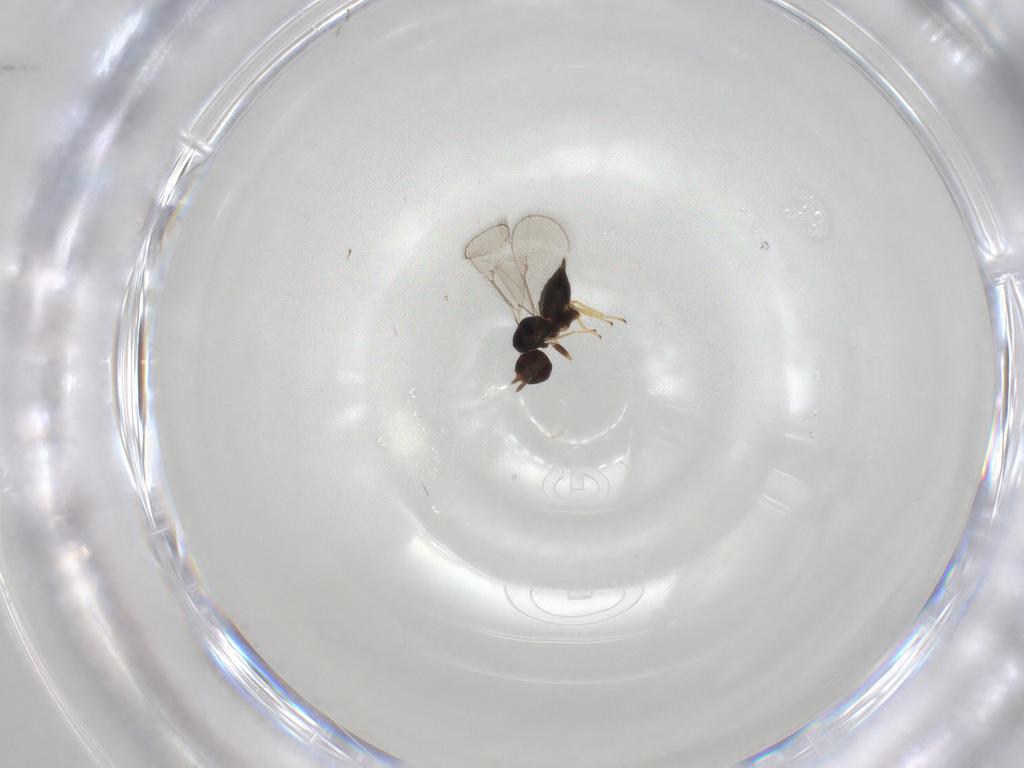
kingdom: Animalia
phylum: Arthropoda
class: Insecta
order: Hymenoptera
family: Eulophidae
